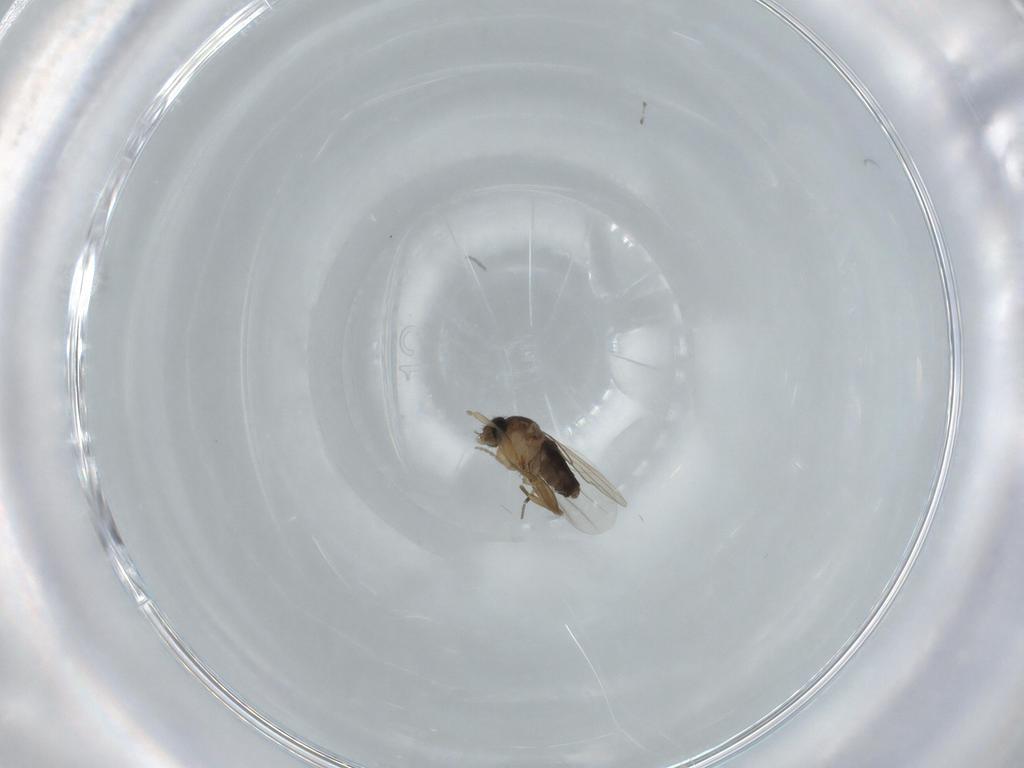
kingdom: Animalia
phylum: Arthropoda
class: Insecta
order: Diptera
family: Phoridae
